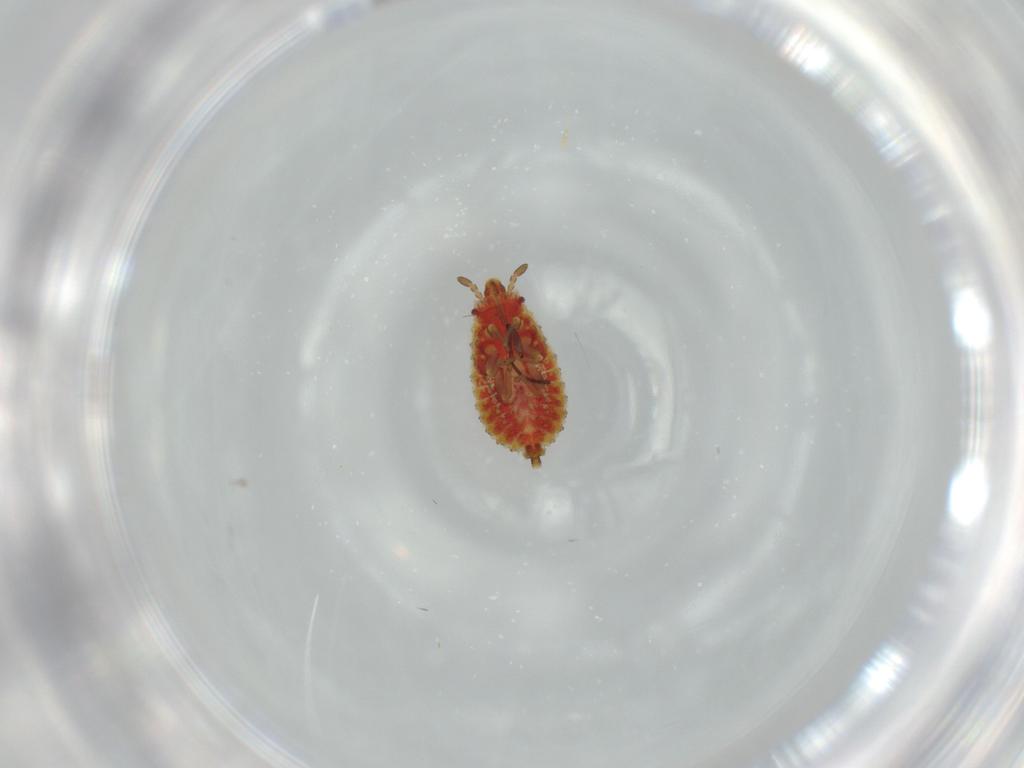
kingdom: Animalia
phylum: Arthropoda
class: Insecta
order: Hemiptera
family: Aradidae
